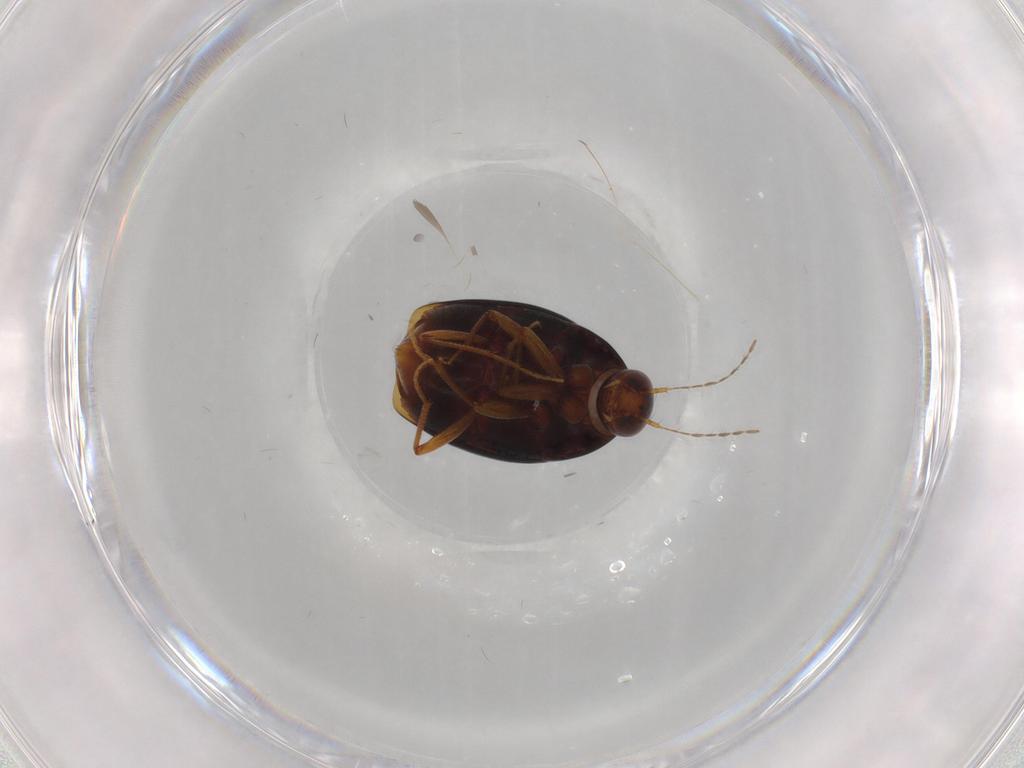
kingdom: Animalia
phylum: Arthropoda
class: Insecta
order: Coleoptera
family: Staphylinidae
